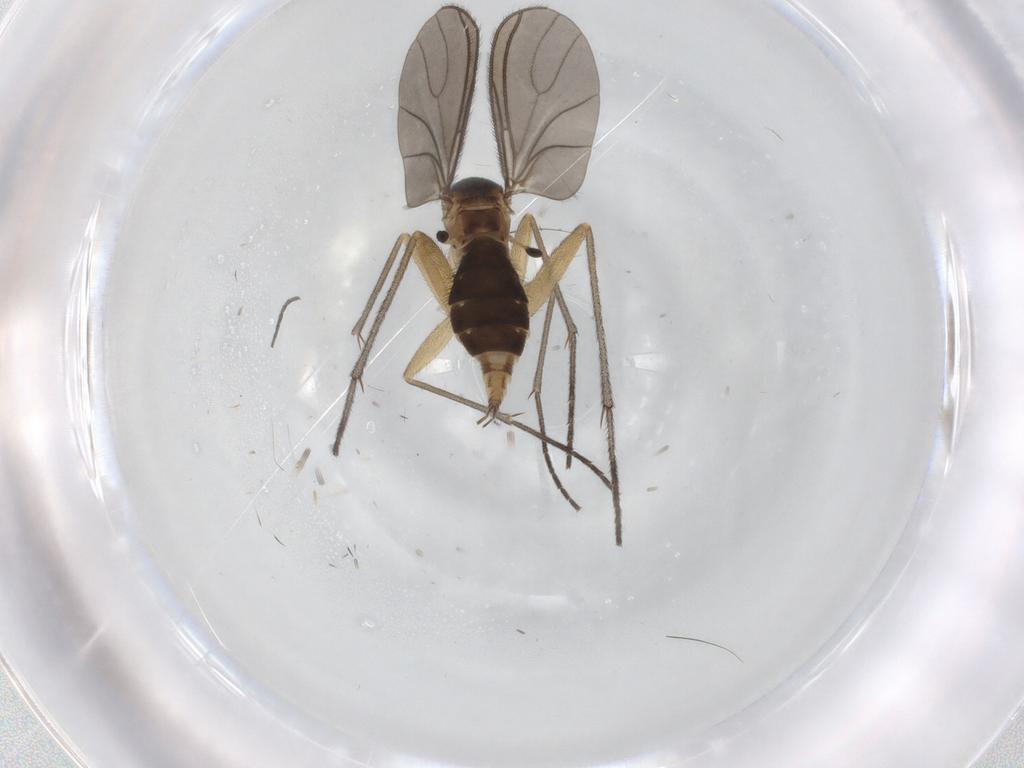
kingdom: Animalia
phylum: Arthropoda
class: Insecta
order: Diptera
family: Sciaridae
